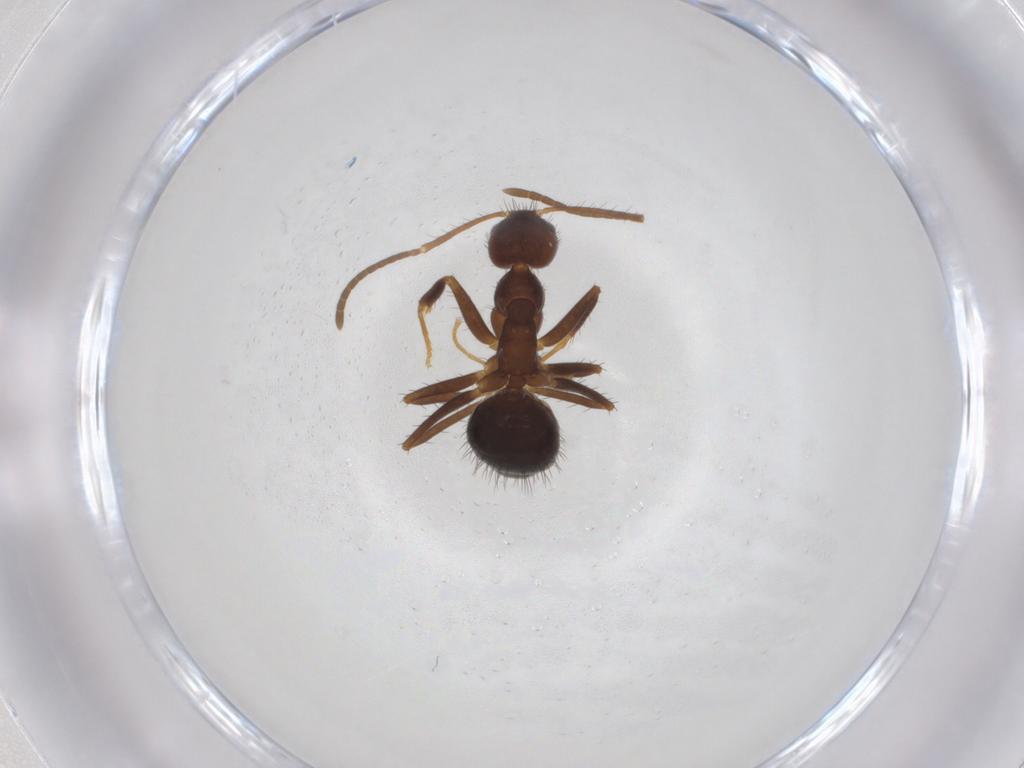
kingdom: Animalia
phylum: Arthropoda
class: Insecta
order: Hymenoptera
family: Formicidae
